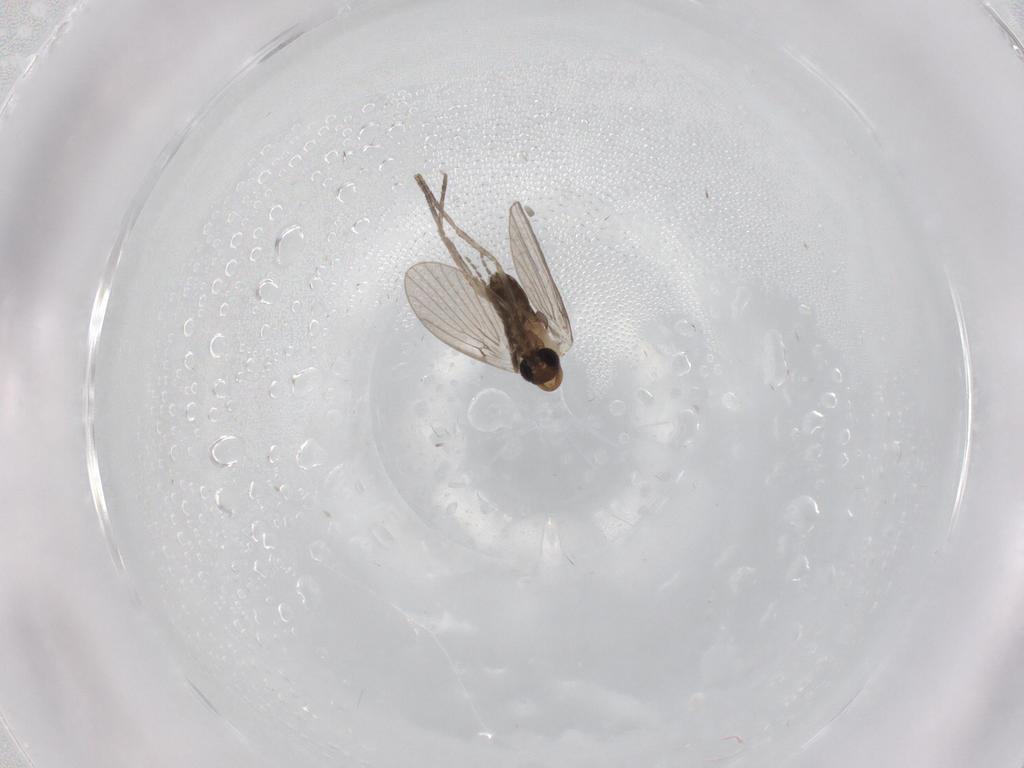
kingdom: Animalia
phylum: Arthropoda
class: Insecta
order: Diptera
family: Psychodidae
